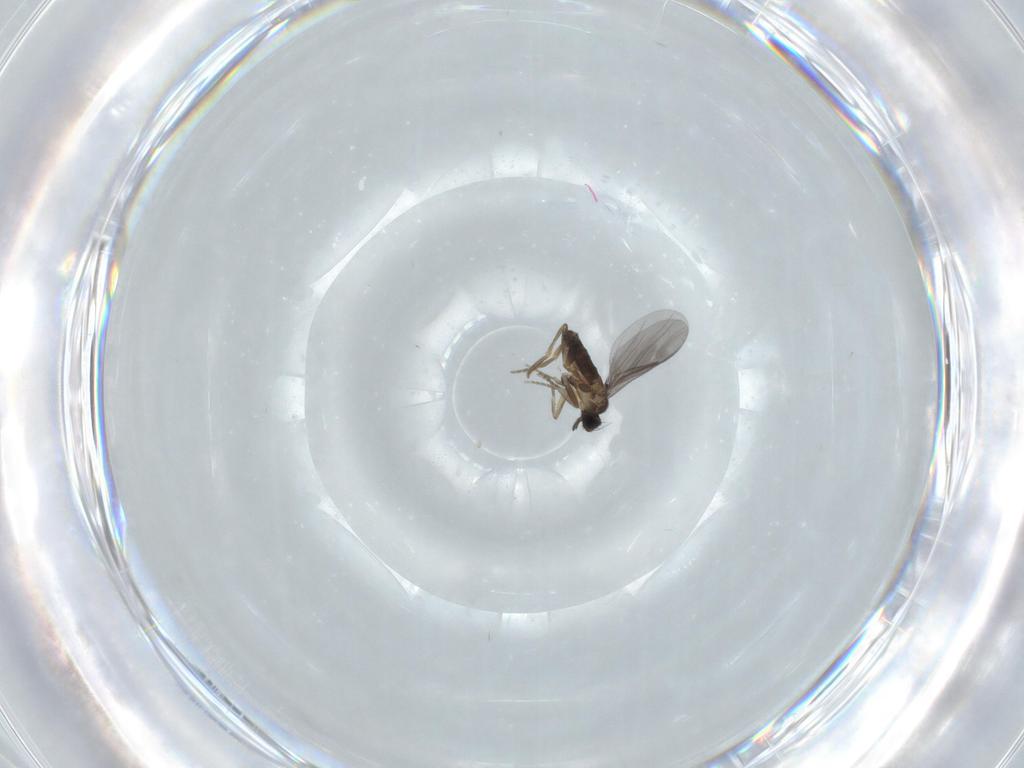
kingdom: Animalia
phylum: Arthropoda
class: Insecta
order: Diptera
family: Cecidomyiidae
